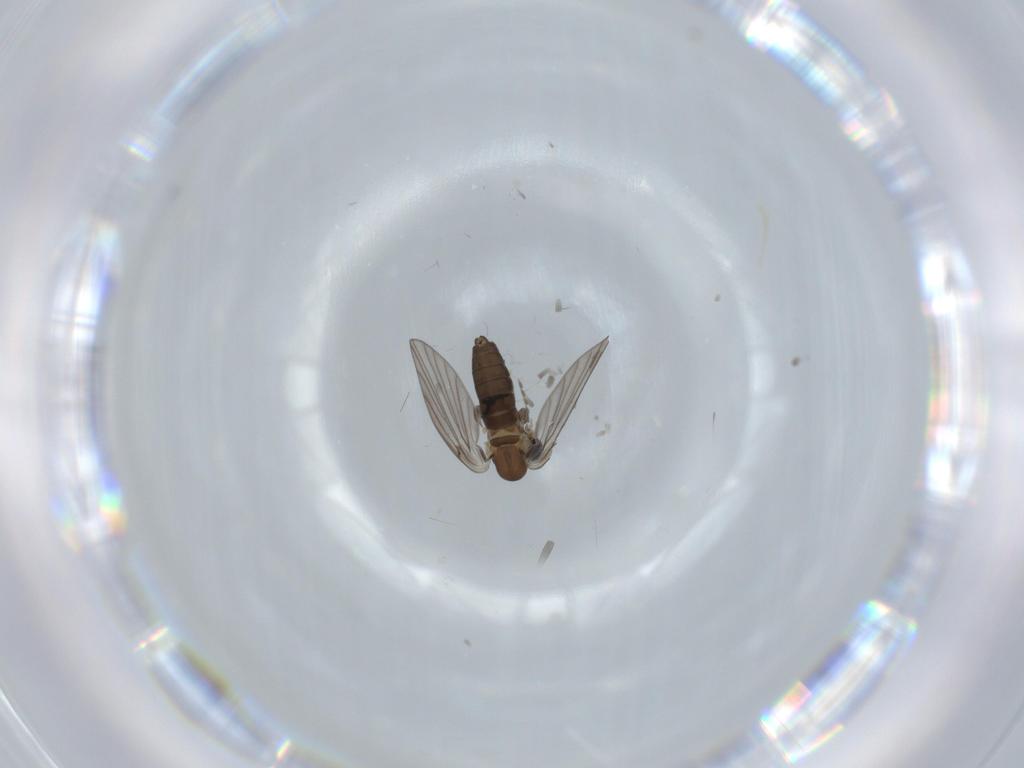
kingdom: Animalia
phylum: Arthropoda
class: Insecta
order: Diptera
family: Psychodidae
